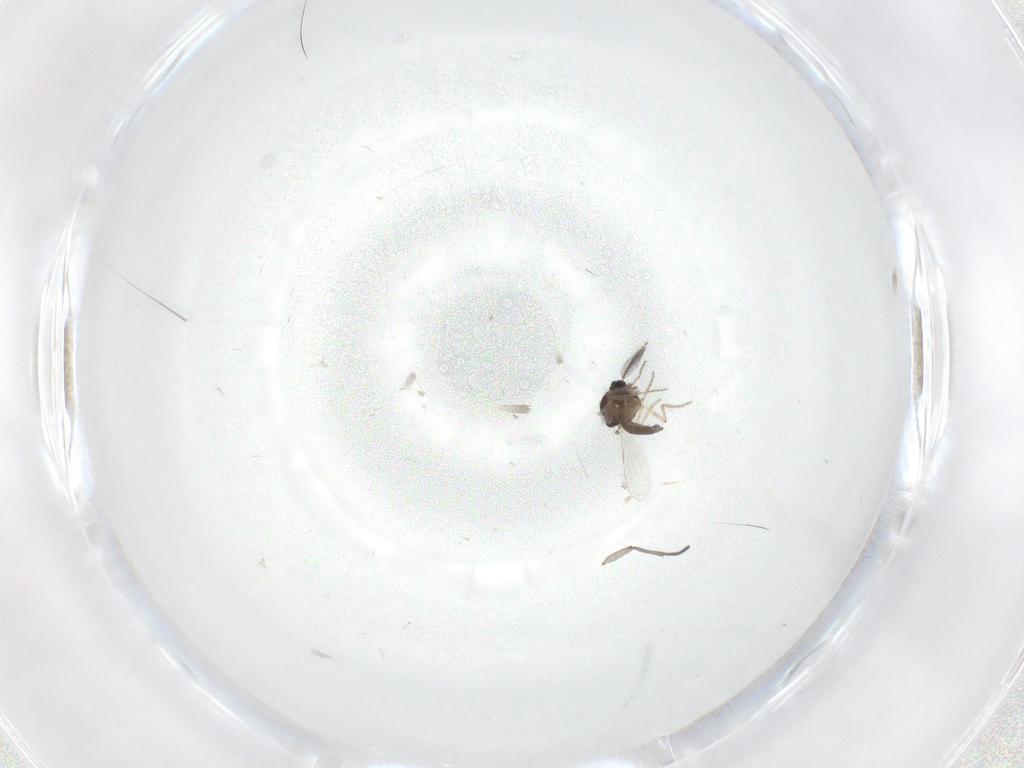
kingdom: Animalia
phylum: Arthropoda
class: Insecta
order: Diptera
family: Ceratopogonidae
